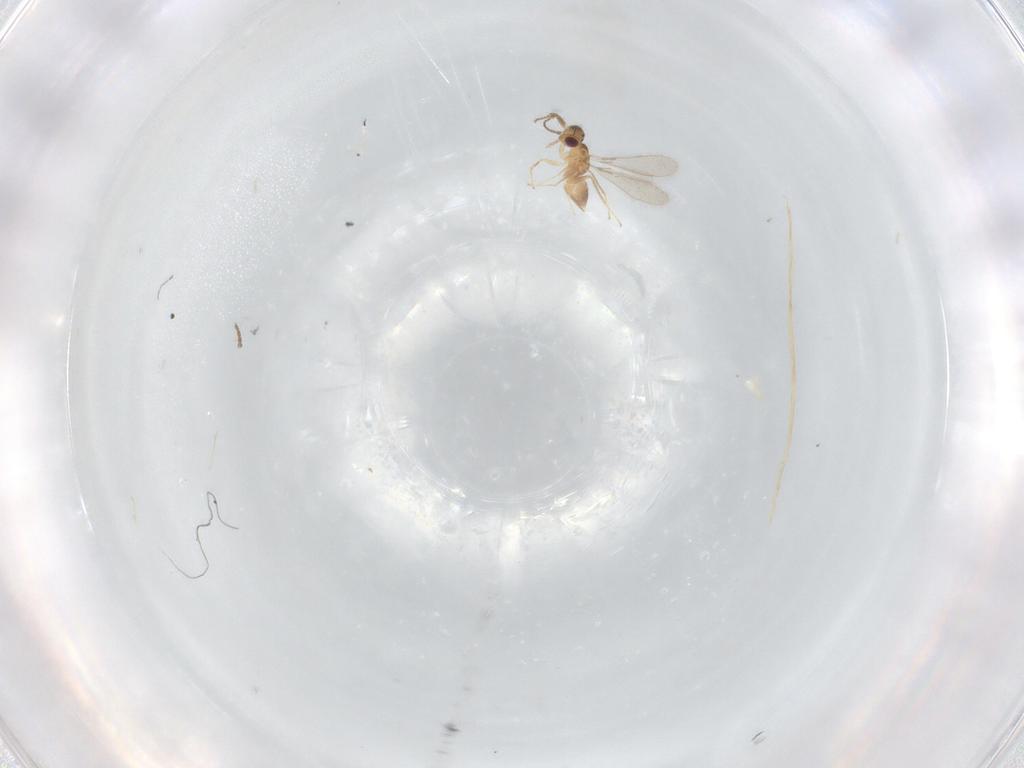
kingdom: Animalia
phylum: Arthropoda
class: Insecta
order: Hymenoptera
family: Mymaridae
